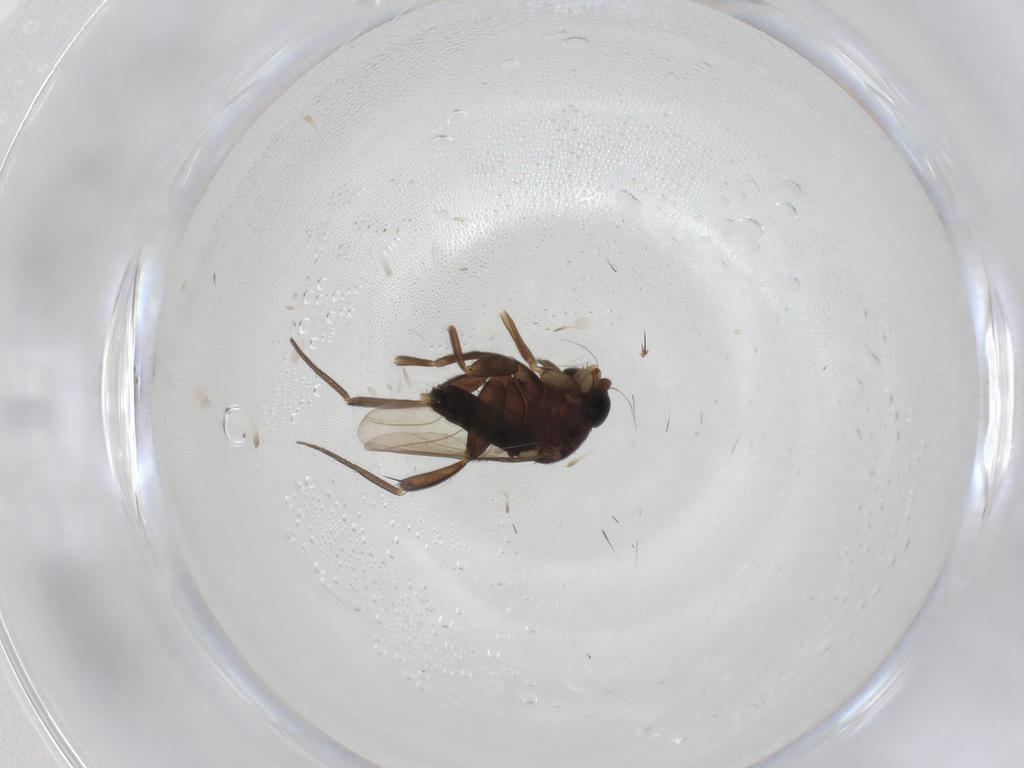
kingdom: Animalia
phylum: Arthropoda
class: Insecta
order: Diptera
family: Phoridae
